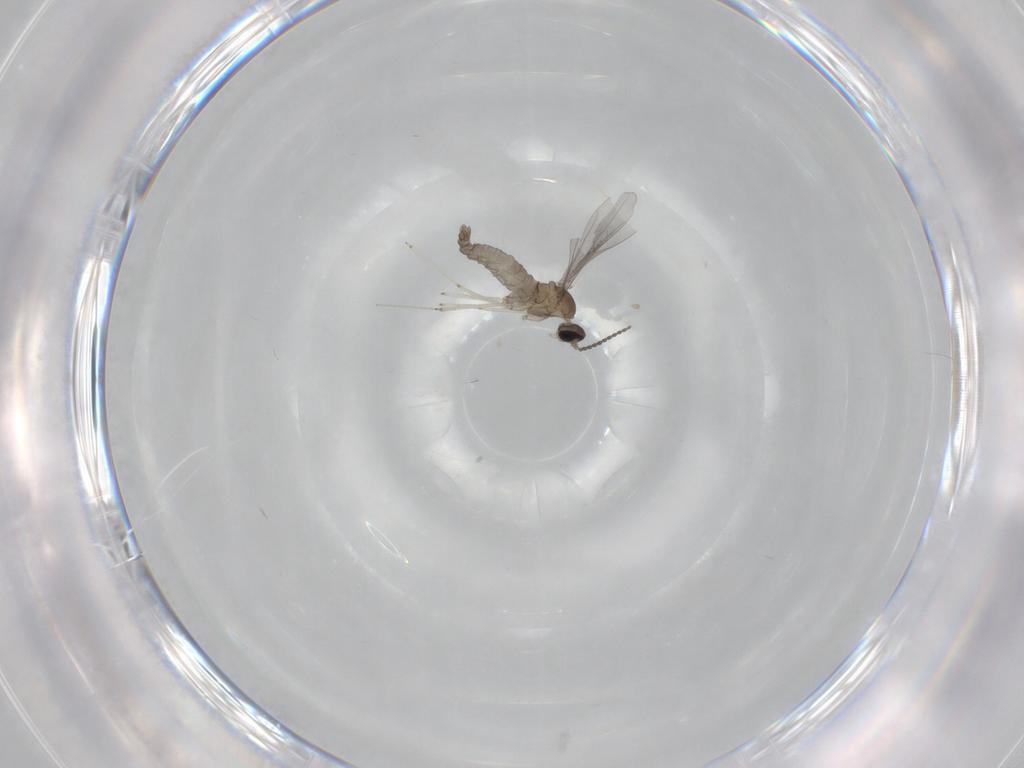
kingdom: Animalia
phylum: Arthropoda
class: Insecta
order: Diptera
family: Cecidomyiidae
